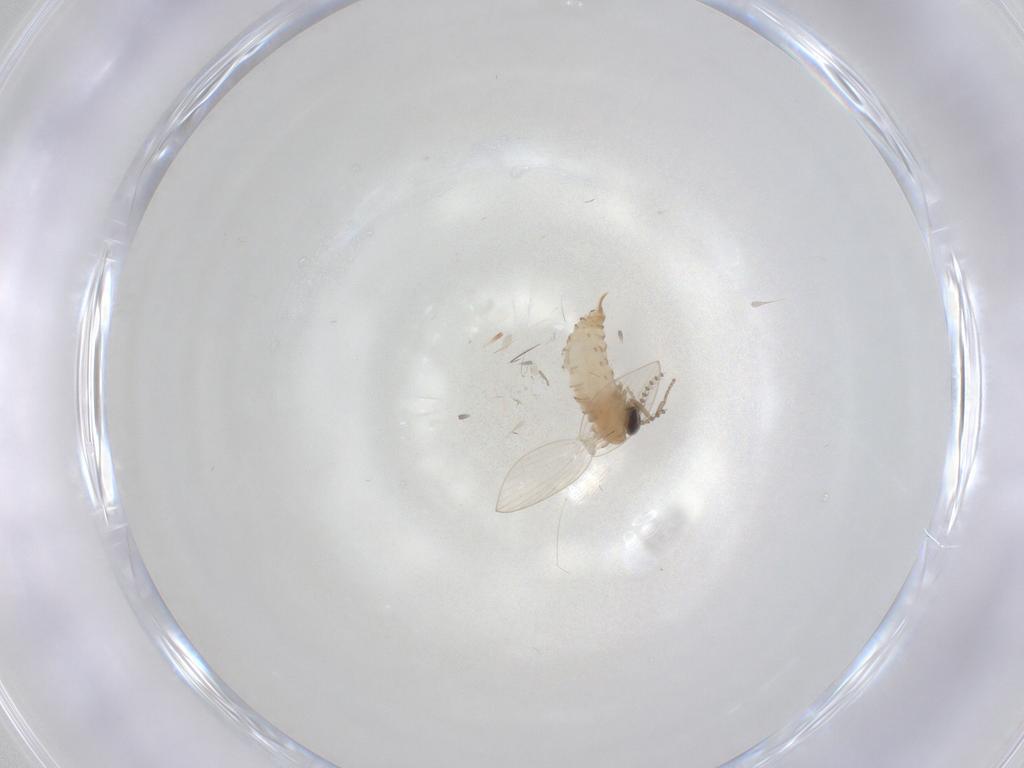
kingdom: Animalia
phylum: Arthropoda
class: Insecta
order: Diptera
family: Psychodidae
